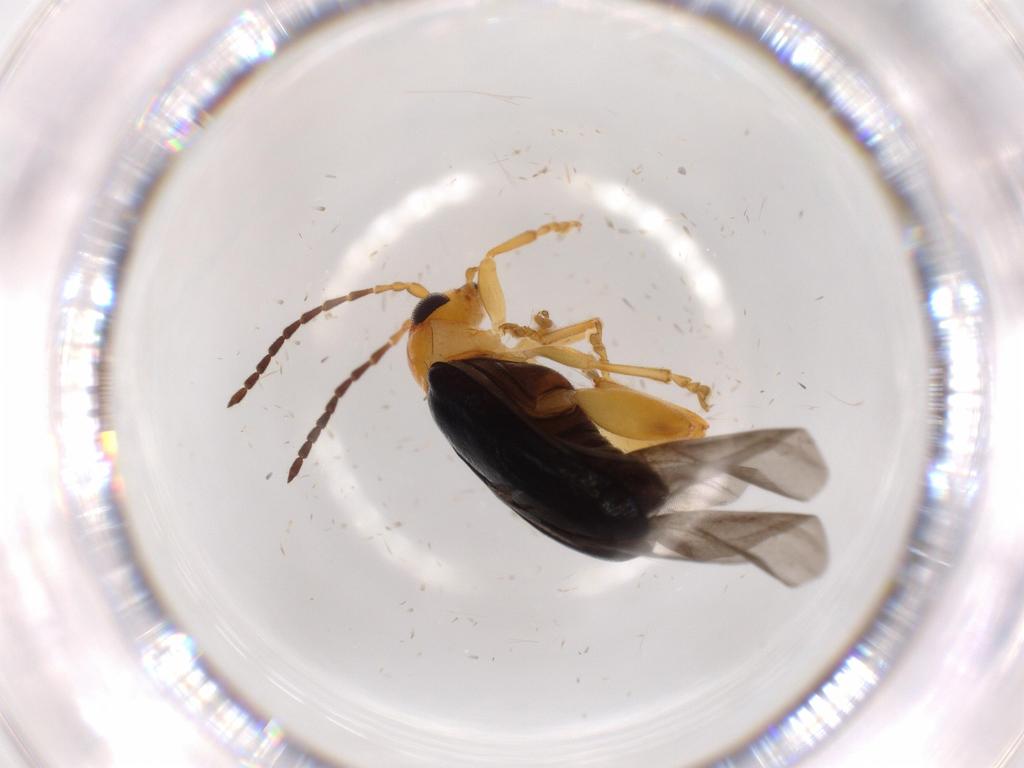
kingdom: Animalia
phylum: Arthropoda
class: Insecta
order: Coleoptera
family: Chrysomelidae
